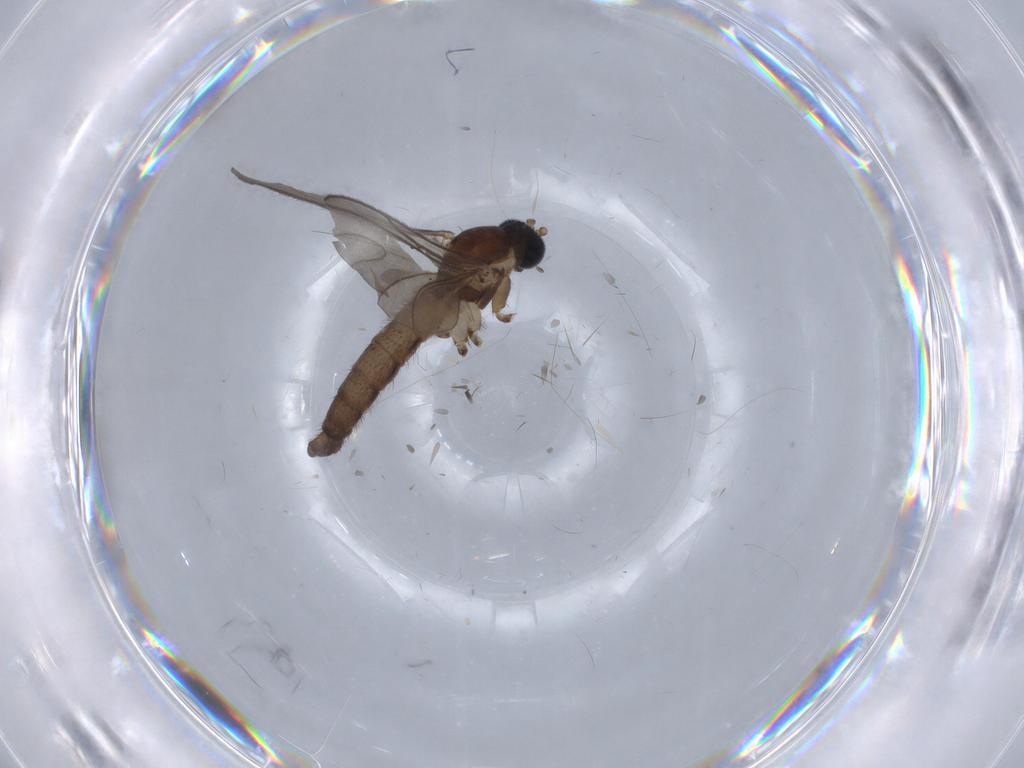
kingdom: Animalia
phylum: Arthropoda
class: Insecta
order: Diptera
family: Sciaridae
